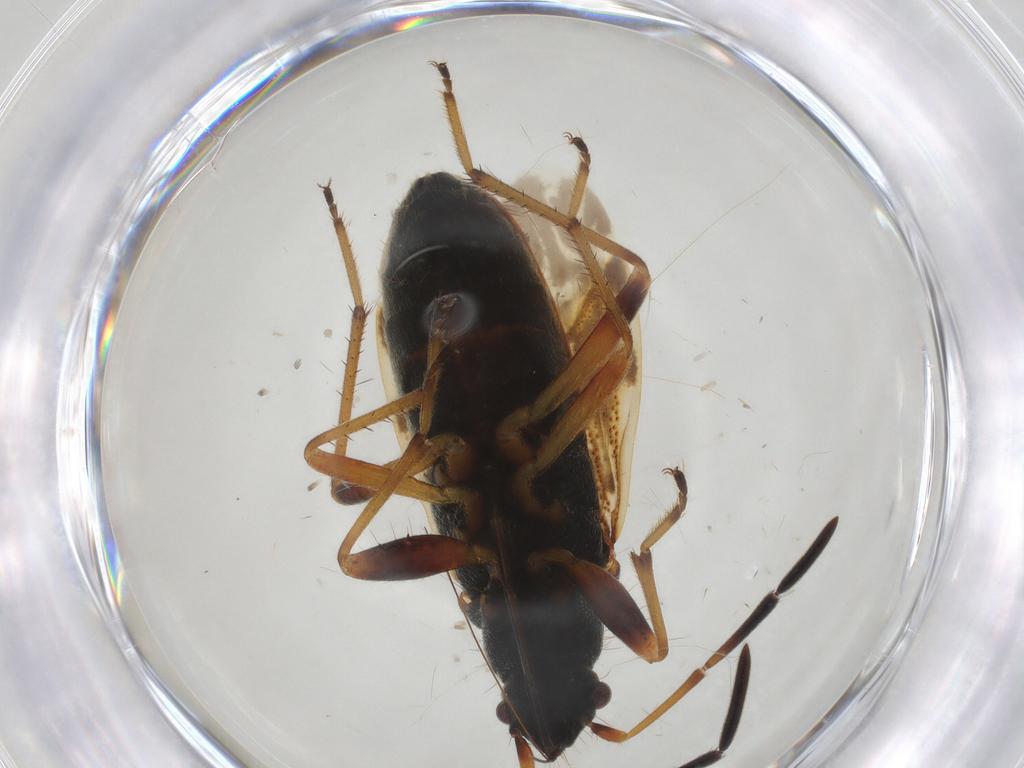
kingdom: Animalia
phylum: Arthropoda
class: Insecta
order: Hemiptera
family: Rhyparochromidae
